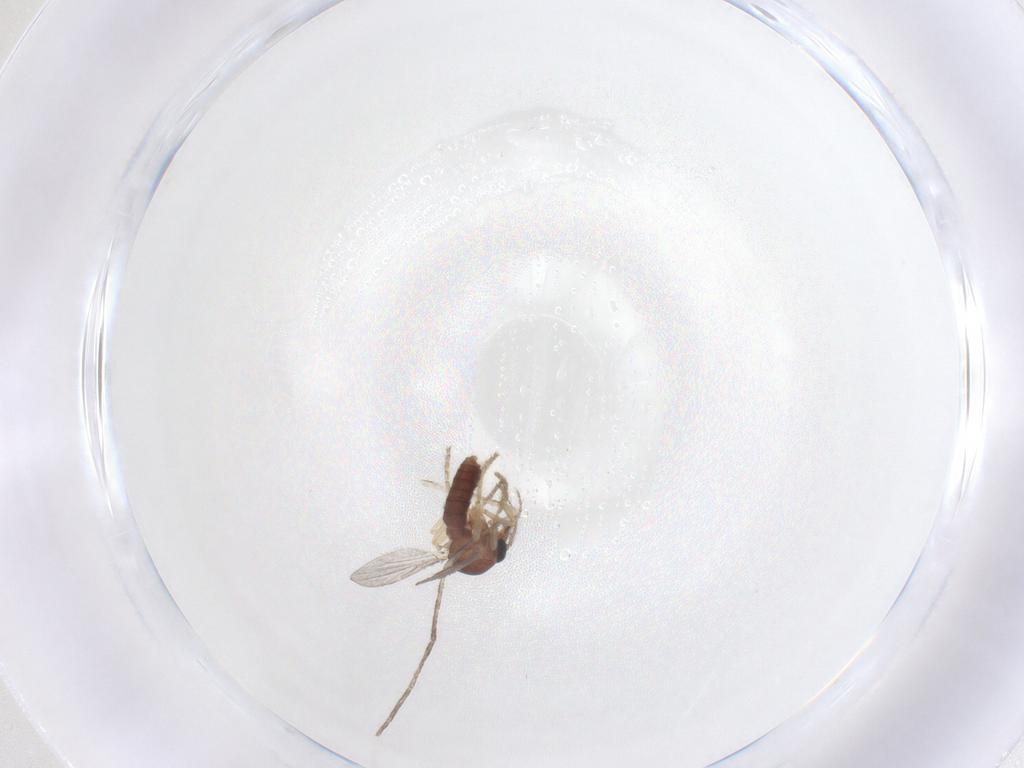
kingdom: Animalia
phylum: Arthropoda
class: Insecta
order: Diptera
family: Ceratopogonidae
